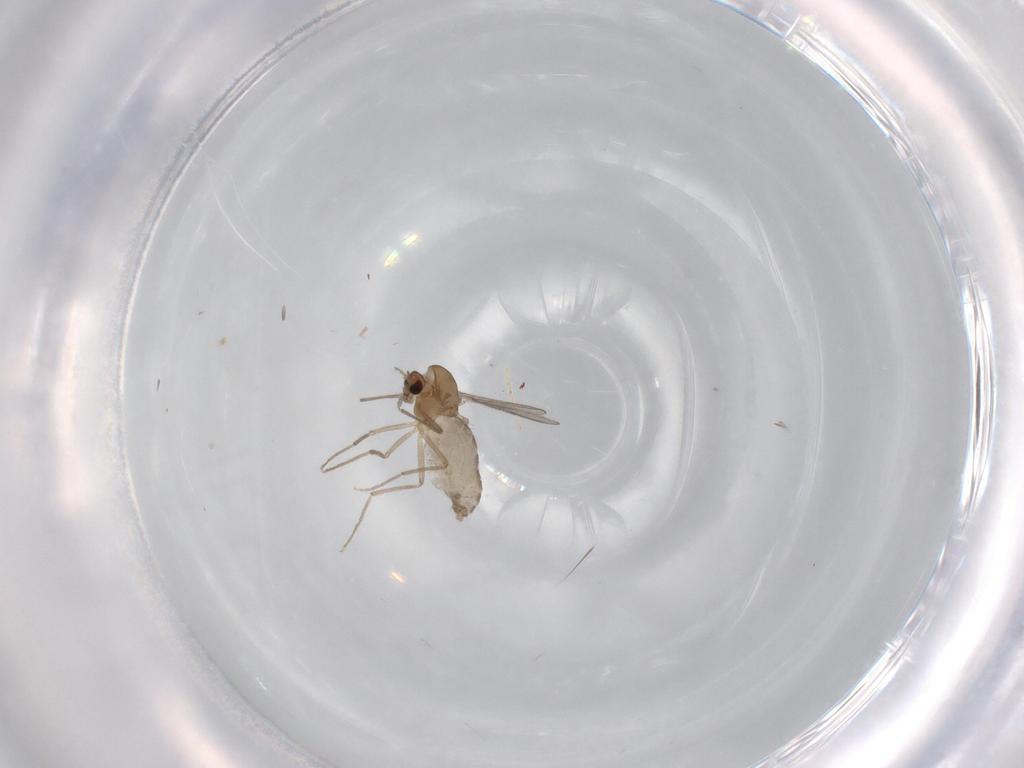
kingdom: Animalia
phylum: Arthropoda
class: Insecta
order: Diptera
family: Chironomidae
